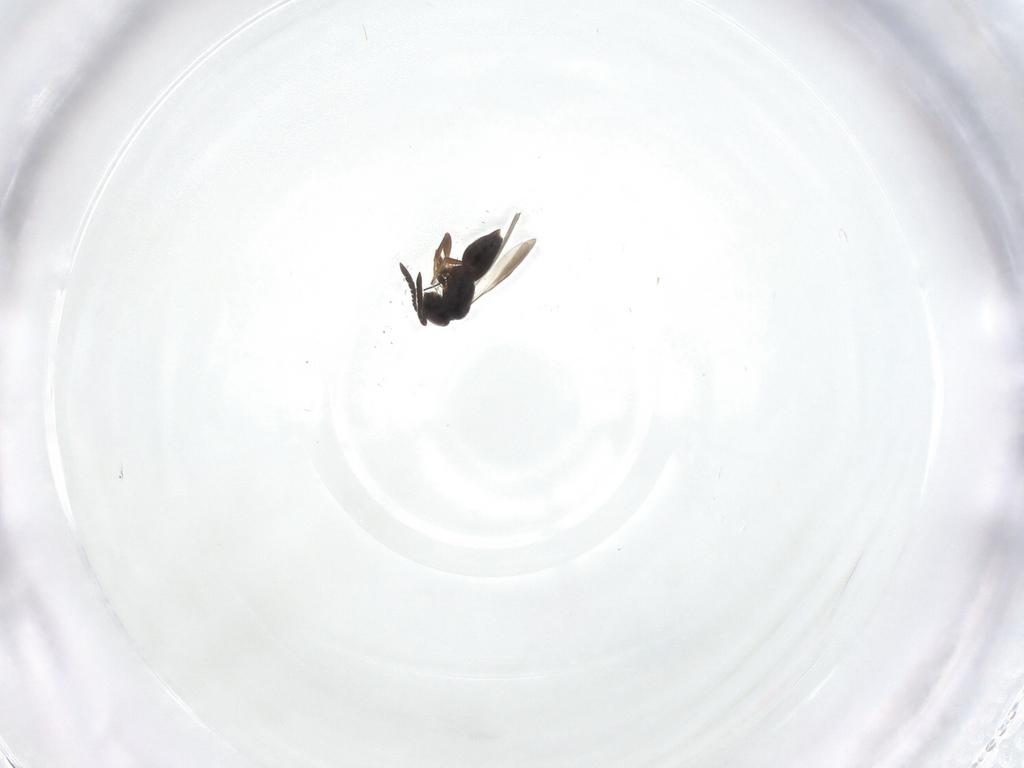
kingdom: Animalia
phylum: Arthropoda
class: Insecta
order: Hymenoptera
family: Ceraphronidae
